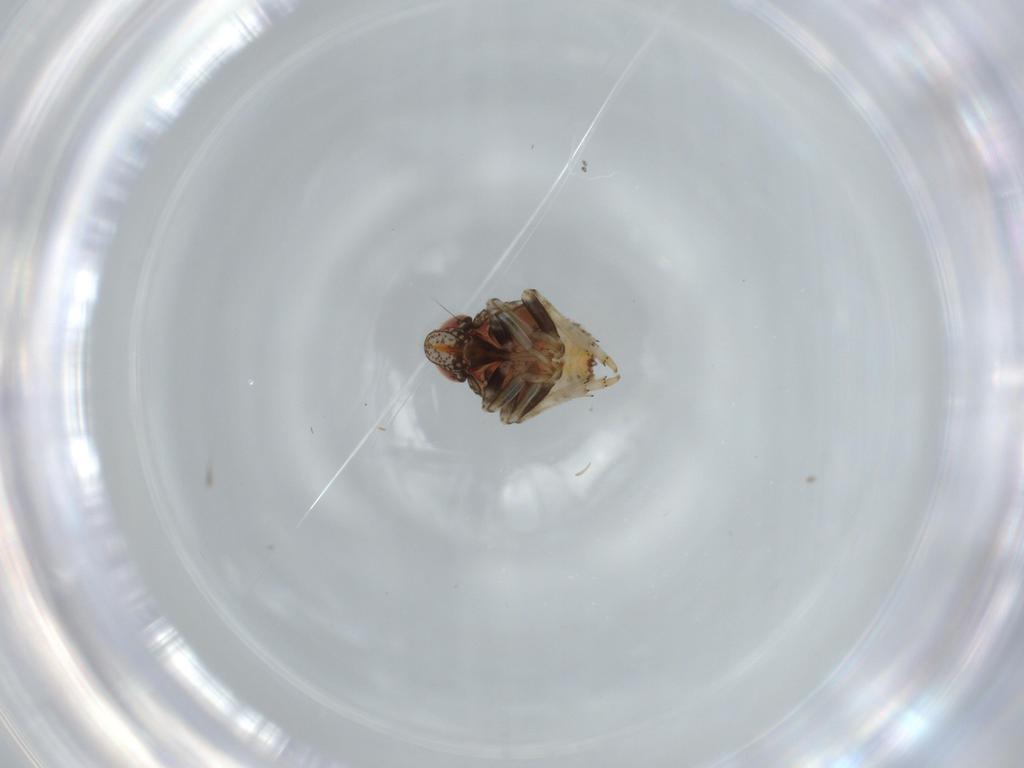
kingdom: Animalia
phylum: Arthropoda
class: Insecta
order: Hemiptera
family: Issidae
